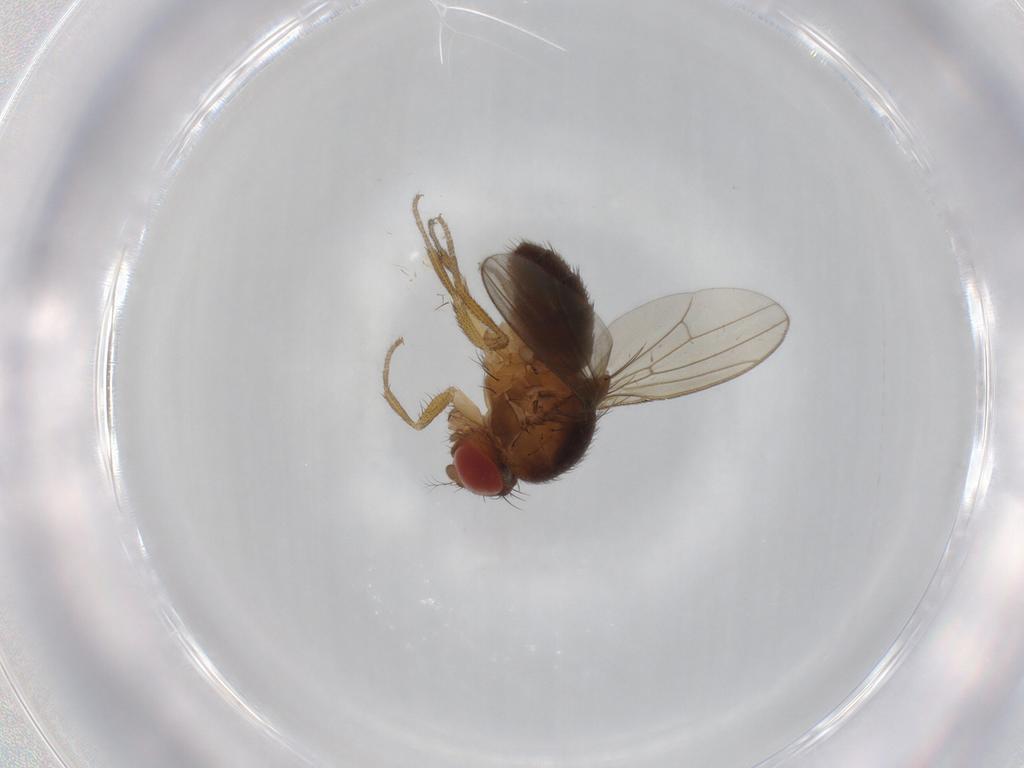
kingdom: Animalia
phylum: Arthropoda
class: Insecta
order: Diptera
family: Drosophilidae
